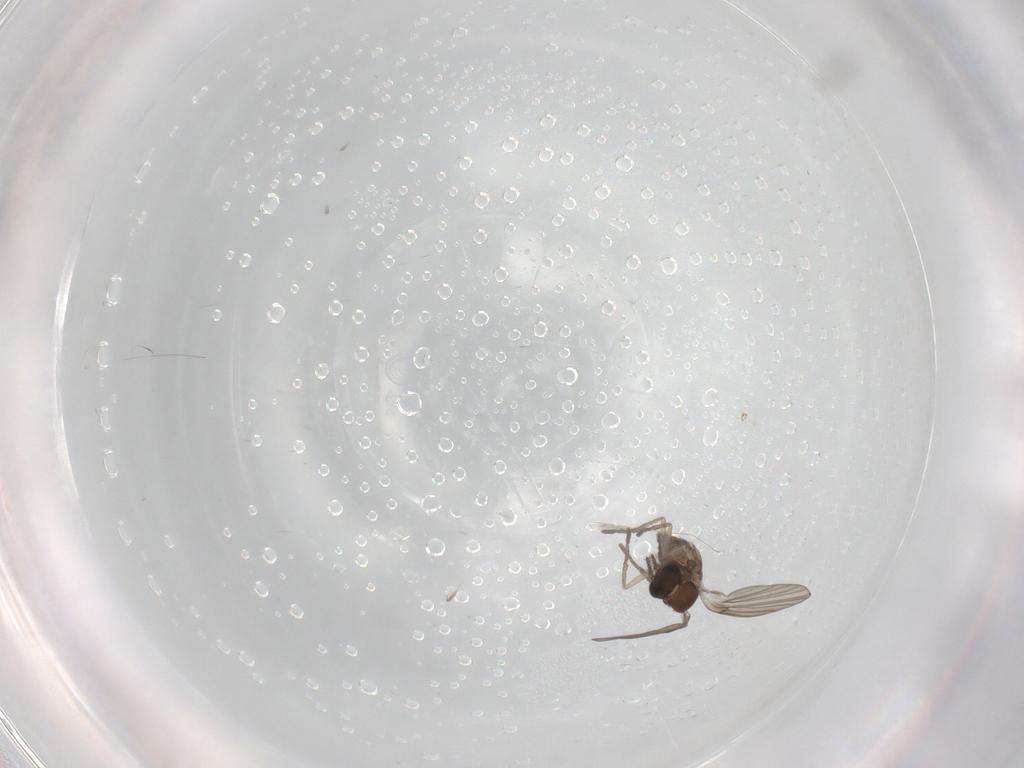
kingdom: Animalia
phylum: Arthropoda
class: Insecta
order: Diptera
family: Cecidomyiidae
